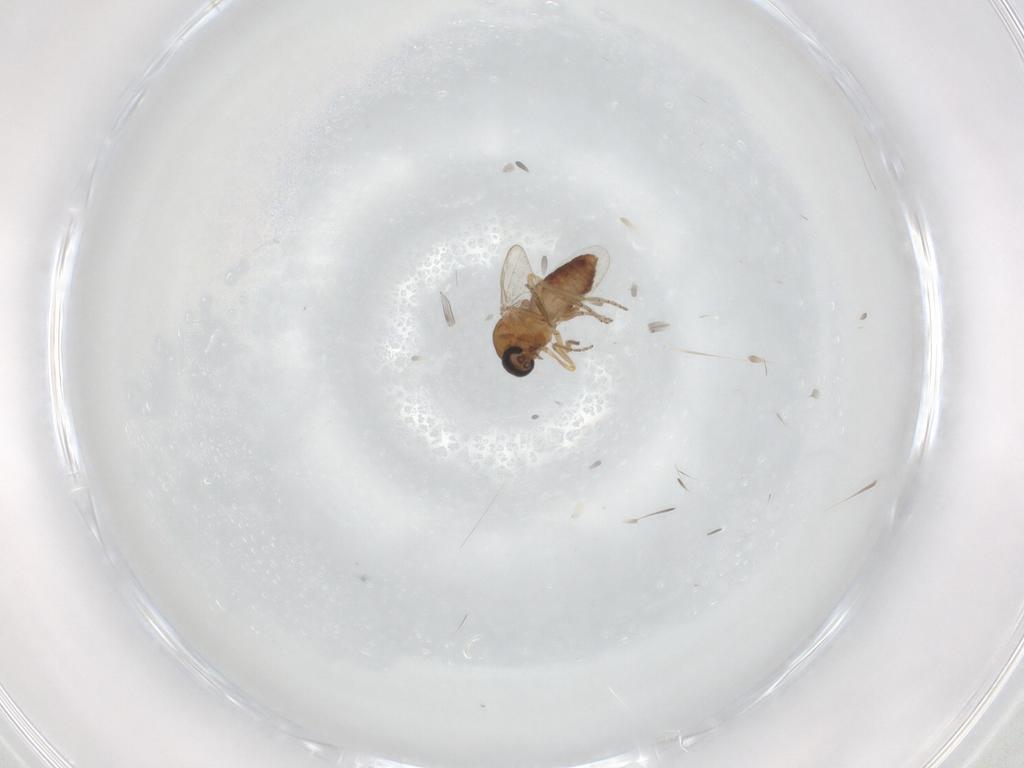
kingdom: Animalia
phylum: Arthropoda
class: Insecta
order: Diptera
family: Ceratopogonidae
